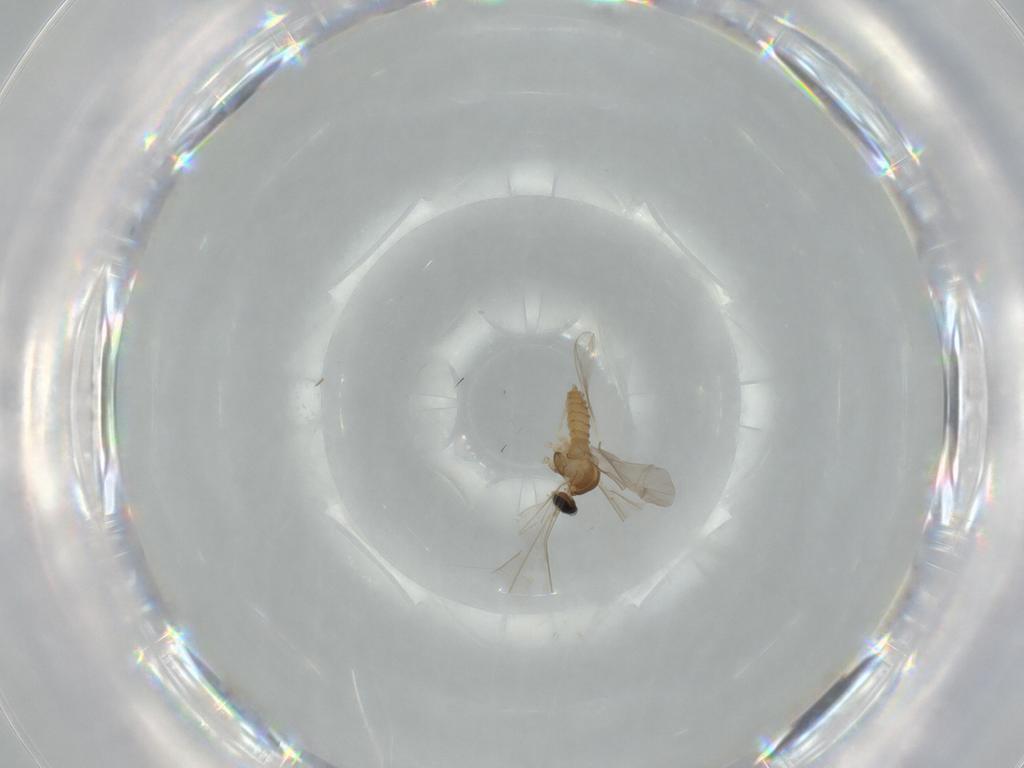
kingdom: Animalia
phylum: Arthropoda
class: Insecta
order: Diptera
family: Cecidomyiidae
